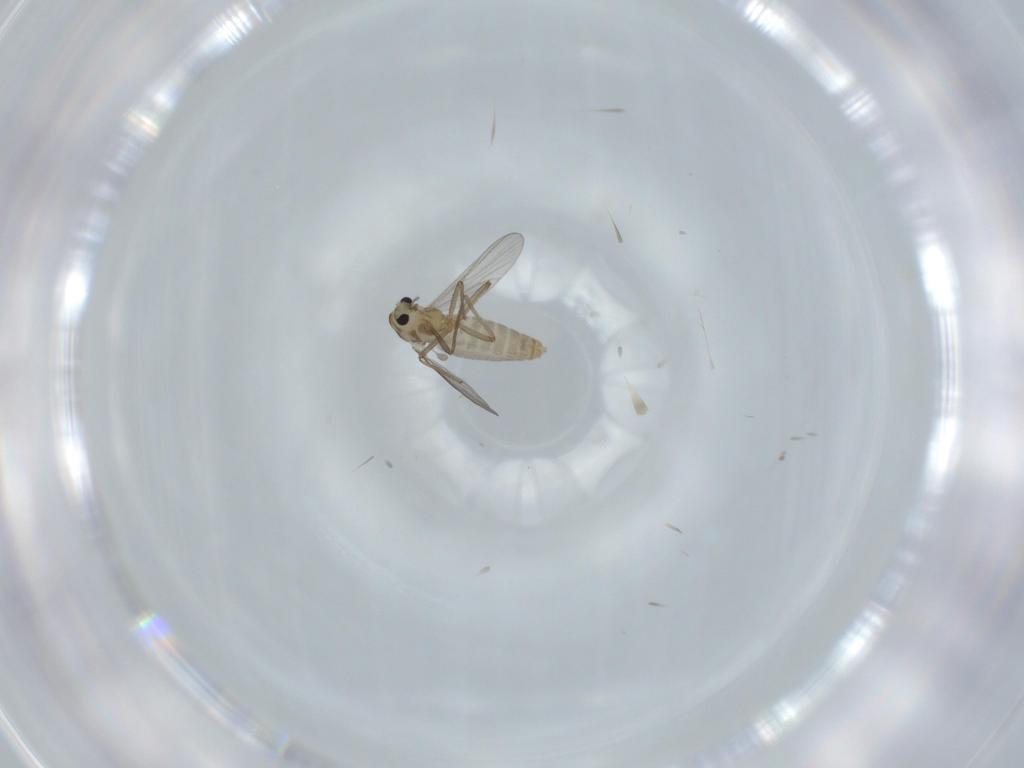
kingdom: Animalia
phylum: Arthropoda
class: Insecta
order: Diptera
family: Chironomidae
